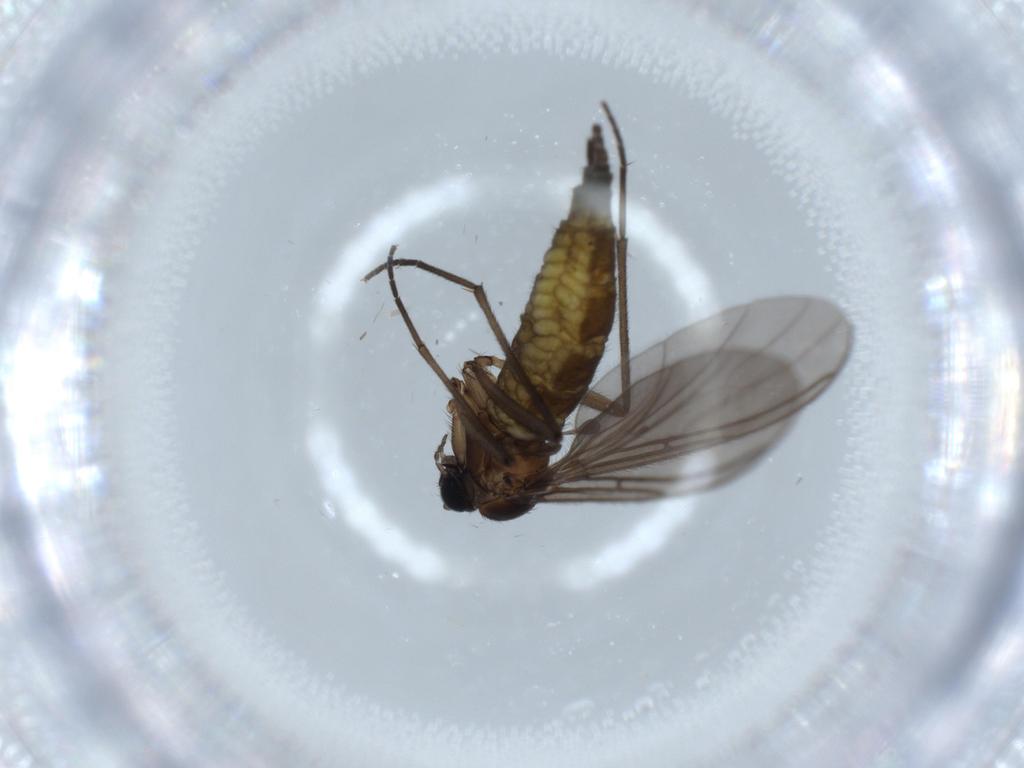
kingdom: Animalia
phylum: Arthropoda
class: Insecta
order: Diptera
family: Sciaridae
